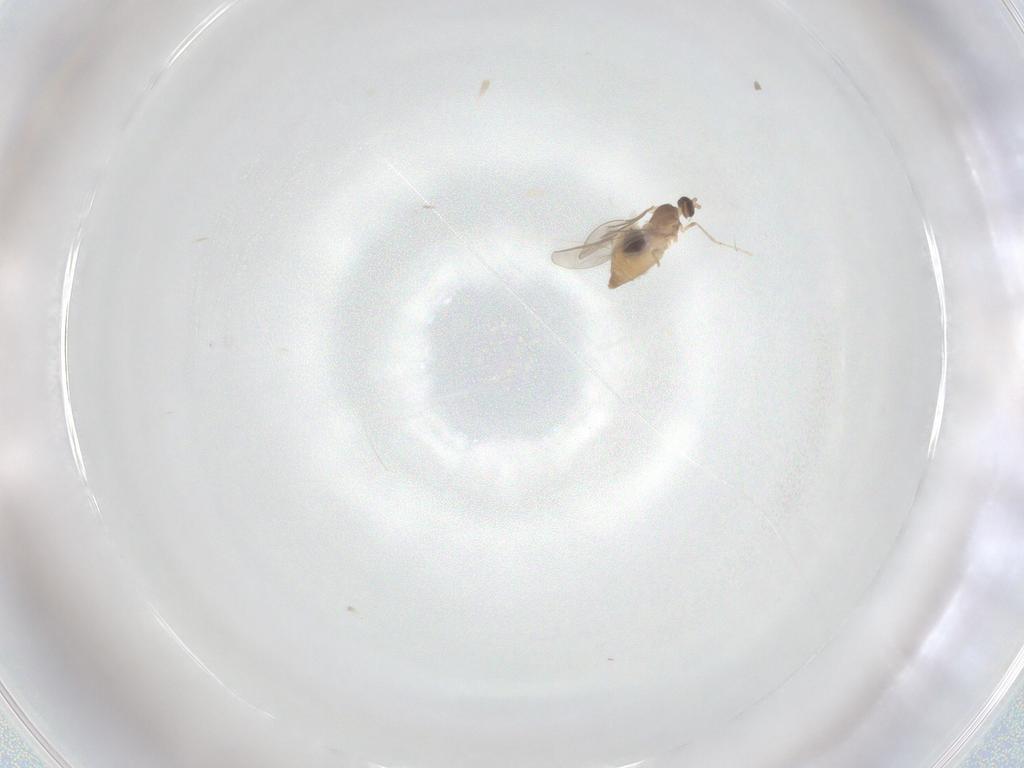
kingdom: Animalia
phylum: Arthropoda
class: Insecta
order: Diptera
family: Cecidomyiidae
